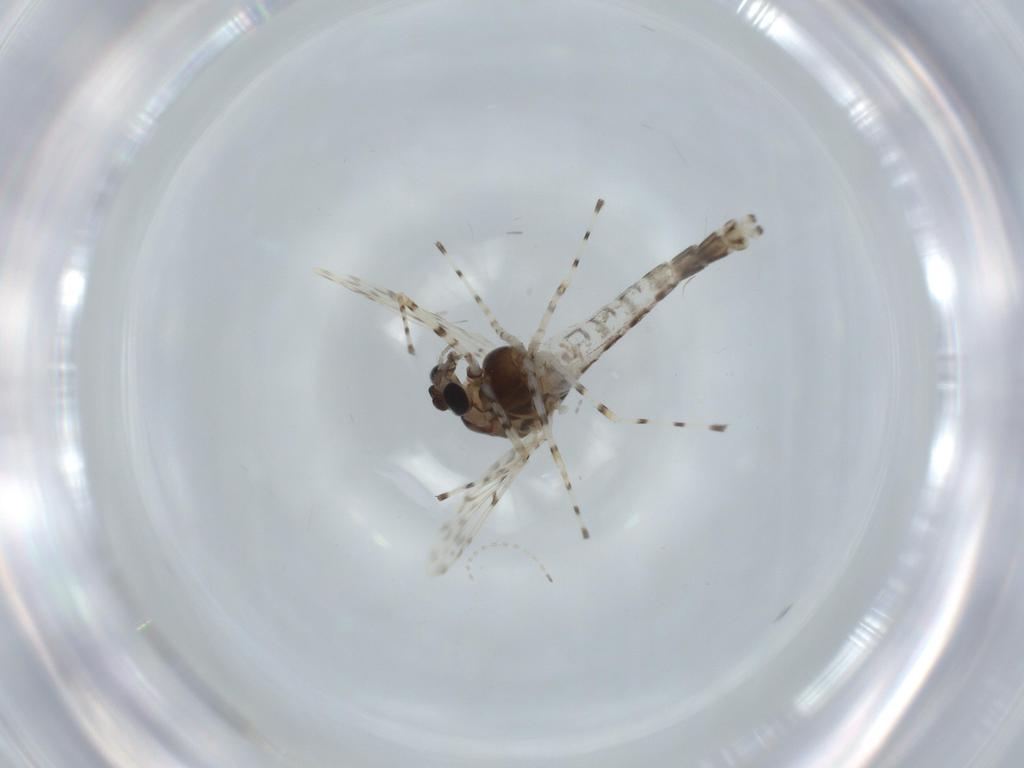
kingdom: Animalia
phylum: Arthropoda
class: Insecta
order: Diptera
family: Chironomidae
